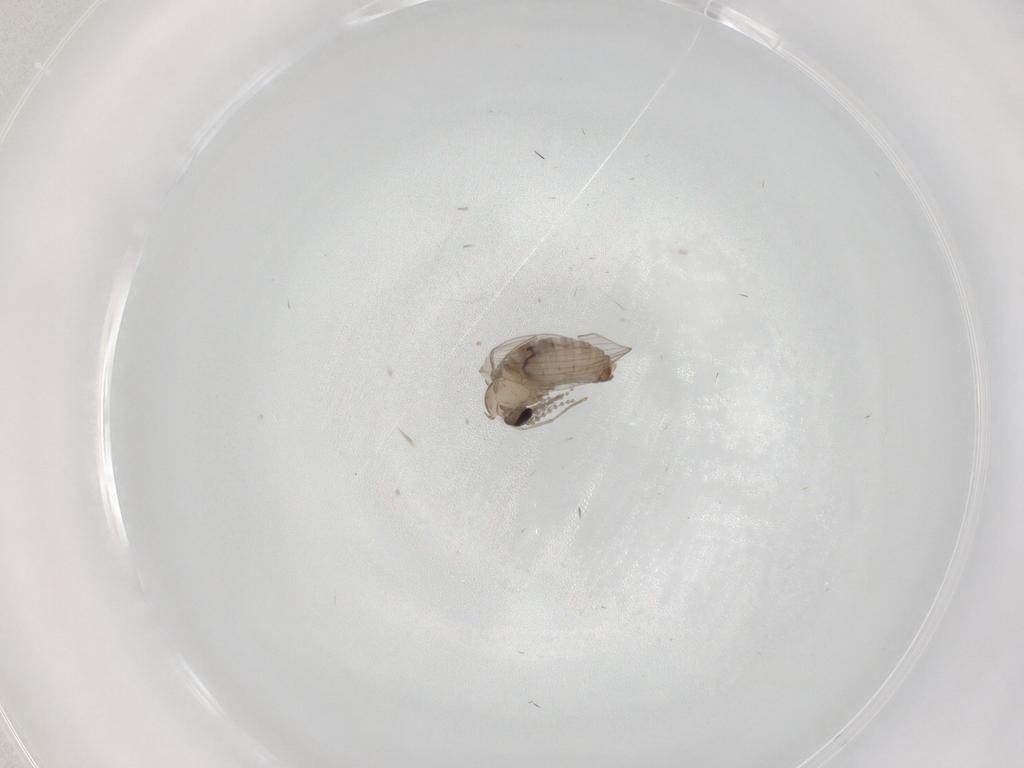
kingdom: Animalia
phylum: Arthropoda
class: Insecta
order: Diptera
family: Psychodidae
